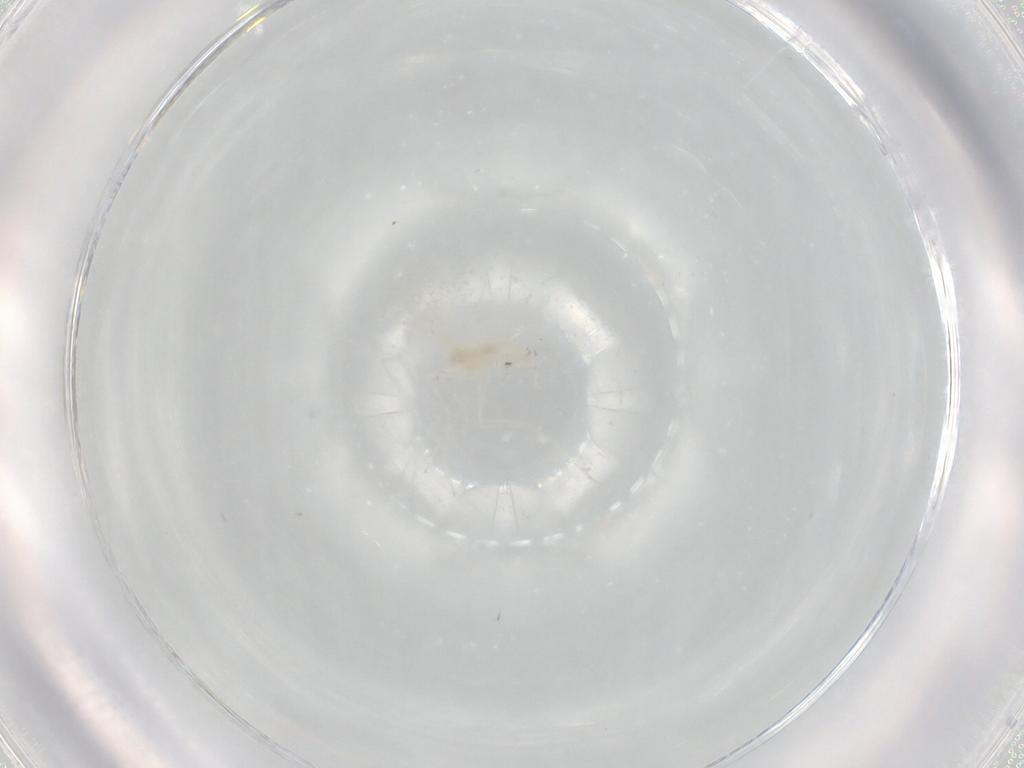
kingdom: Animalia
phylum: Arthropoda
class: Insecta
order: Diptera
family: Cecidomyiidae
